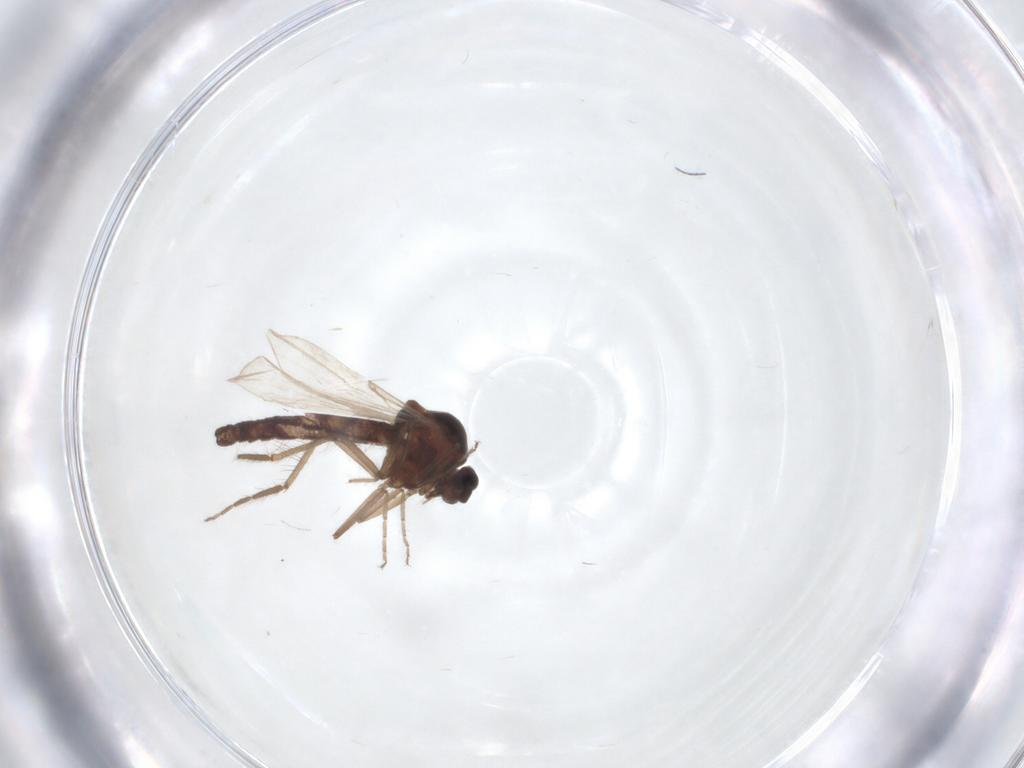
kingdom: Animalia
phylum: Arthropoda
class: Insecta
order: Diptera
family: Ceratopogonidae
